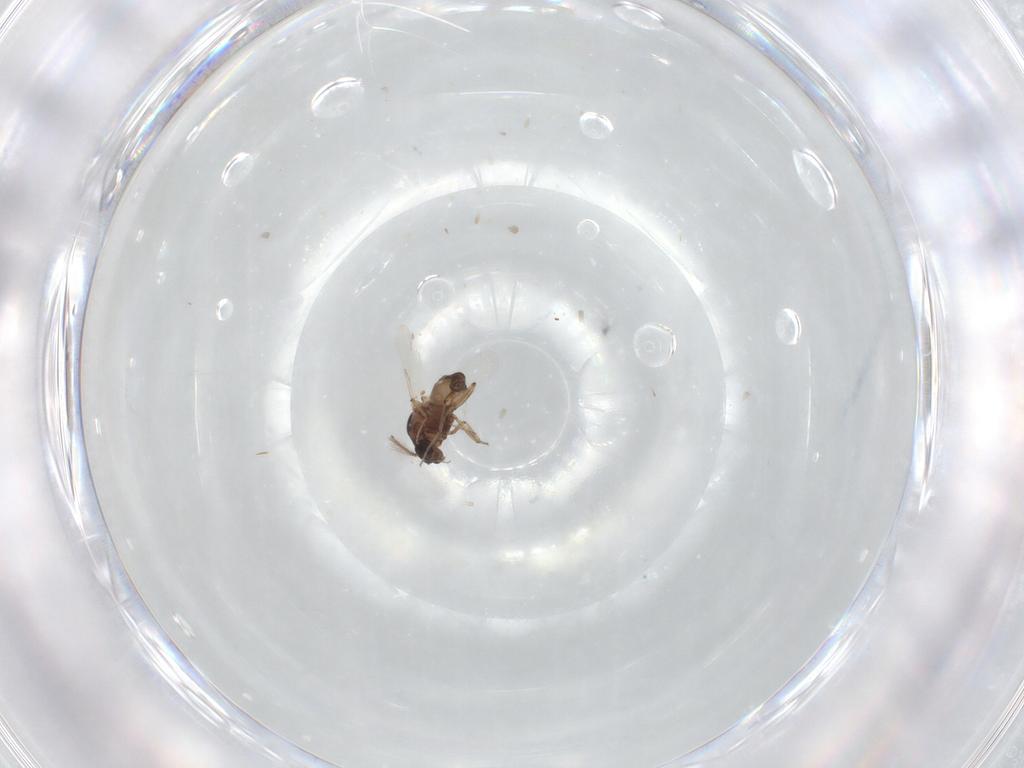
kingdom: Animalia
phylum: Arthropoda
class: Insecta
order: Diptera
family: Ceratopogonidae
